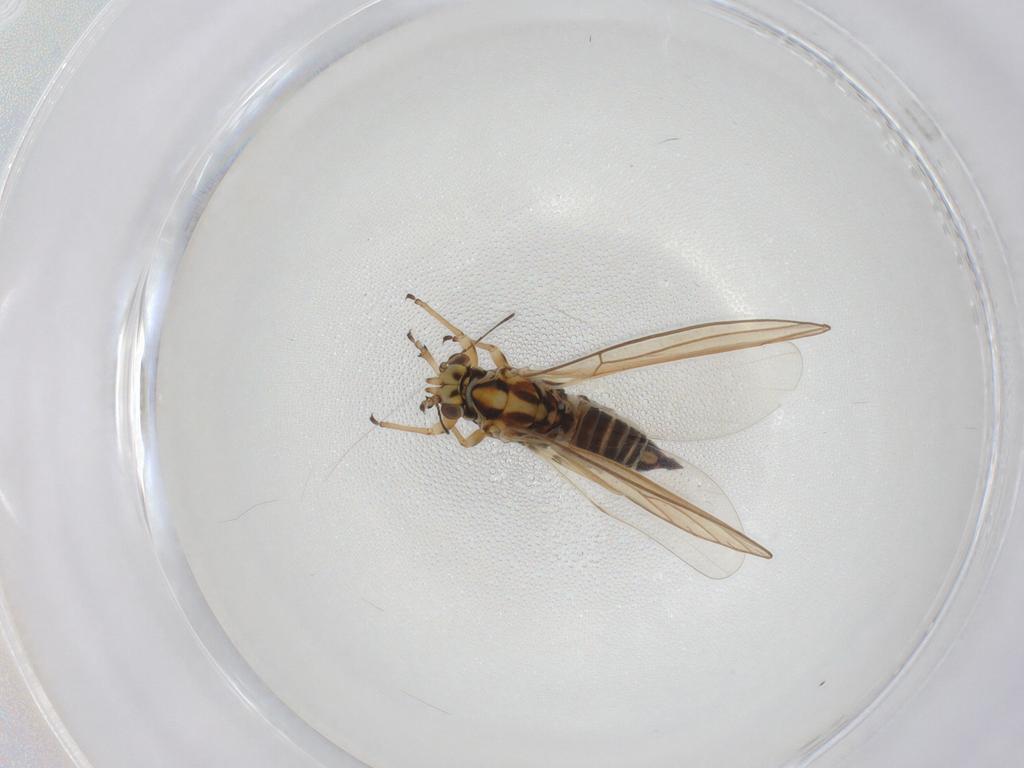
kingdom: Animalia
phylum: Arthropoda
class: Insecta
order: Hemiptera
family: Triozidae
